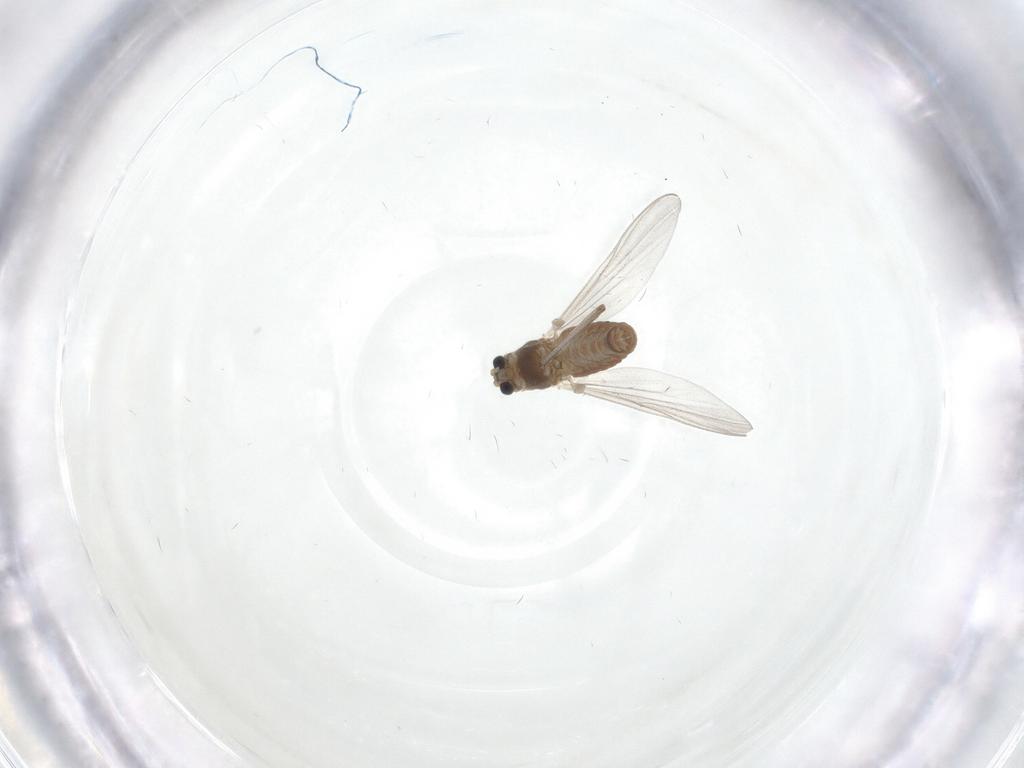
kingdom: Animalia
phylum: Arthropoda
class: Insecta
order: Diptera
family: Chironomidae
